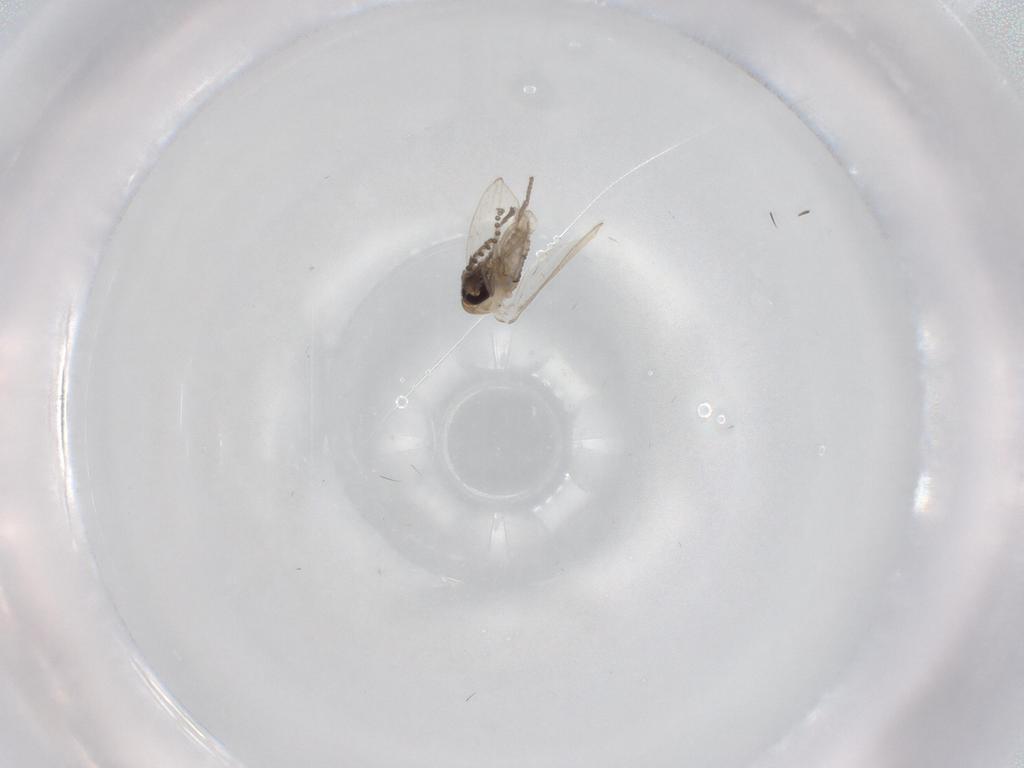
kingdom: Animalia
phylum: Arthropoda
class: Insecta
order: Diptera
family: Psychodidae
